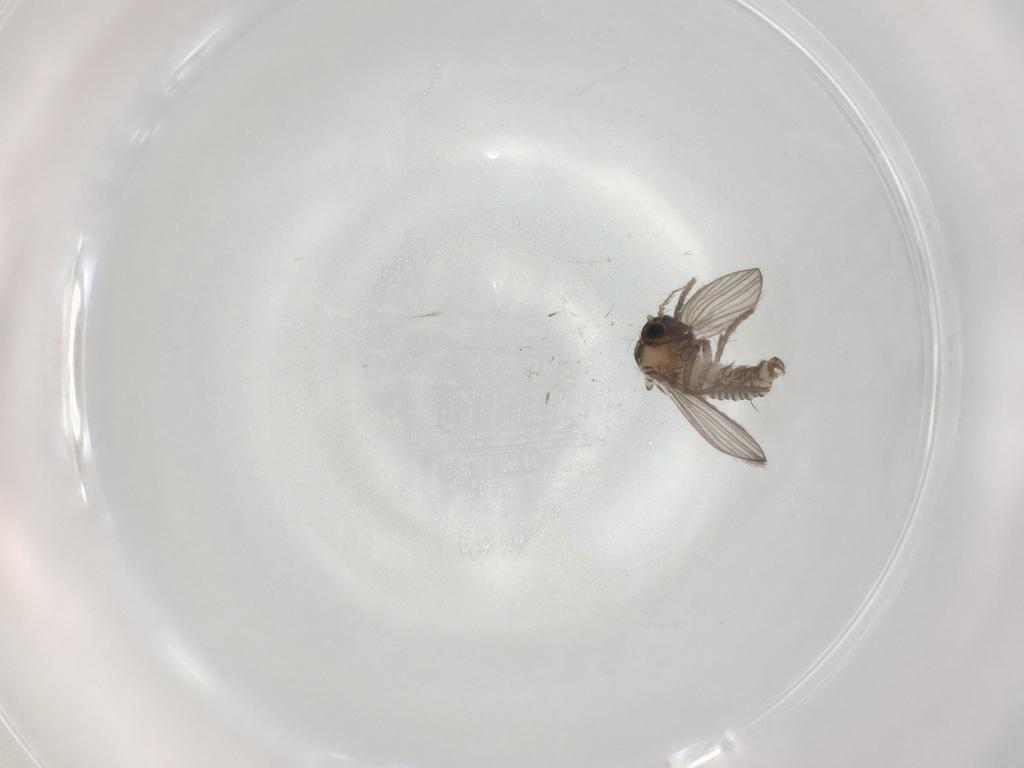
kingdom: Animalia
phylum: Arthropoda
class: Insecta
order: Diptera
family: Psychodidae
